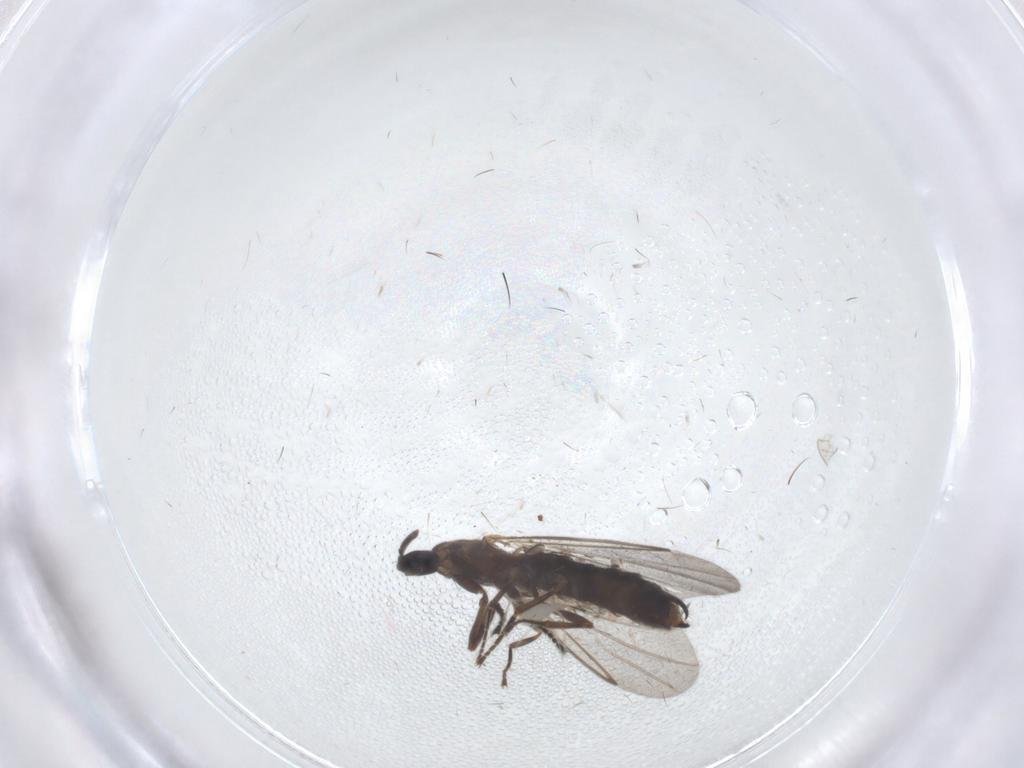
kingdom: Animalia
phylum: Arthropoda
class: Insecta
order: Diptera
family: Scatopsidae
